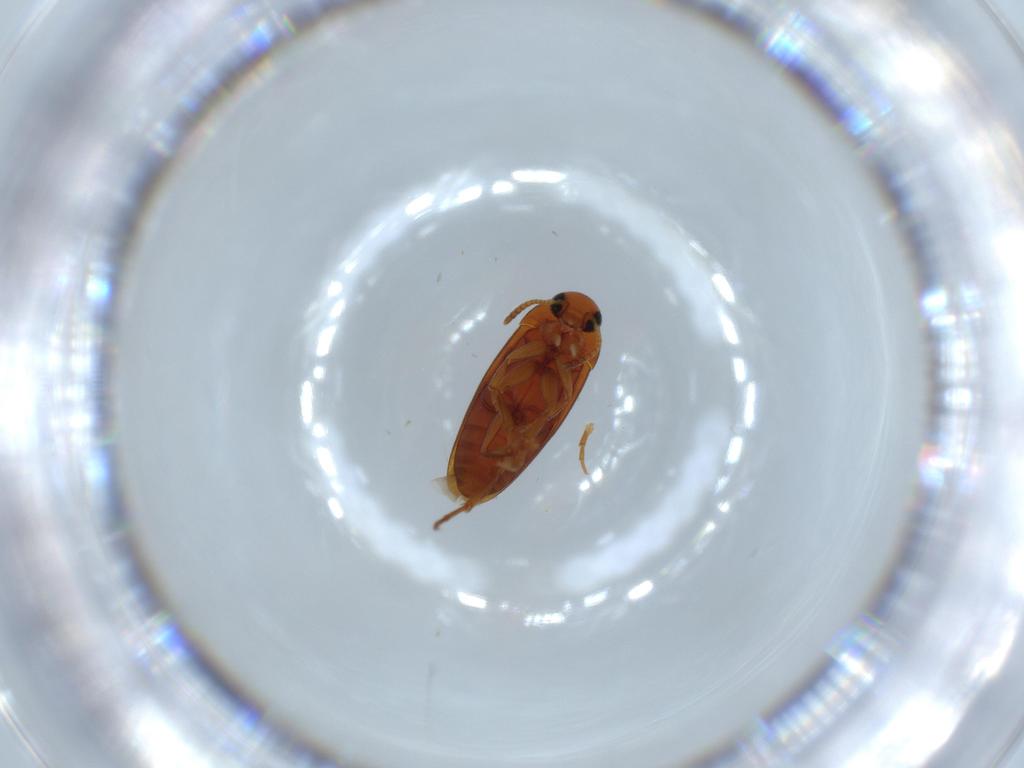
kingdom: Animalia
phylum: Arthropoda
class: Insecta
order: Coleoptera
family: Scraptiidae
